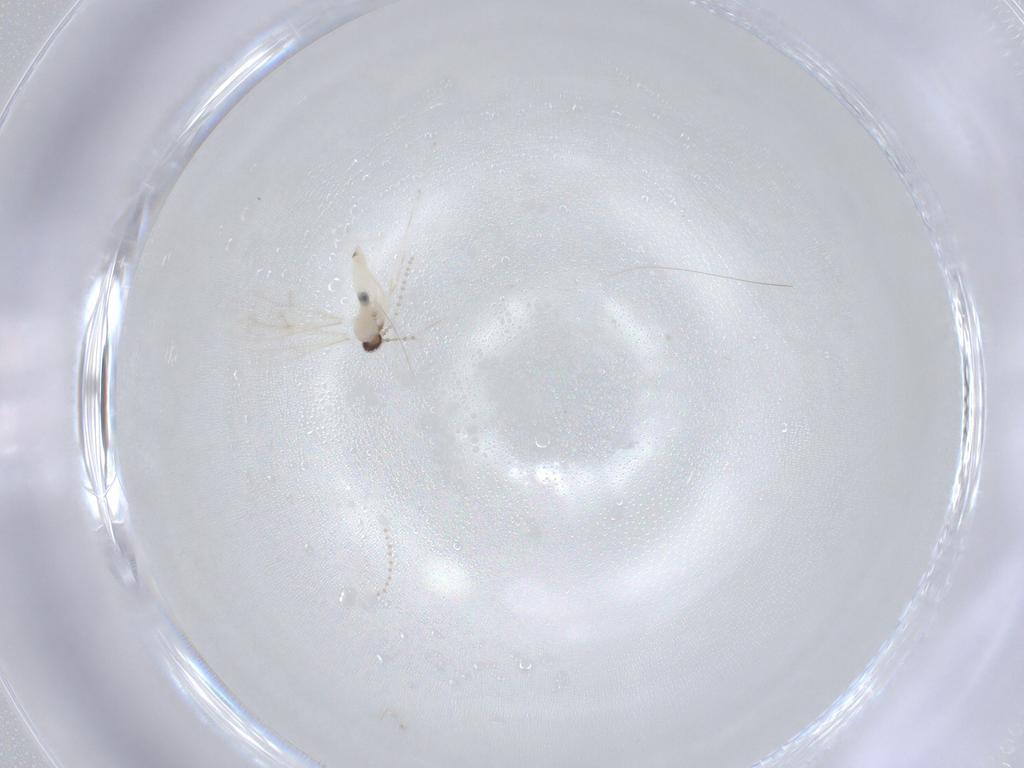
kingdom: Animalia
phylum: Arthropoda
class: Insecta
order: Diptera
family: Cecidomyiidae
